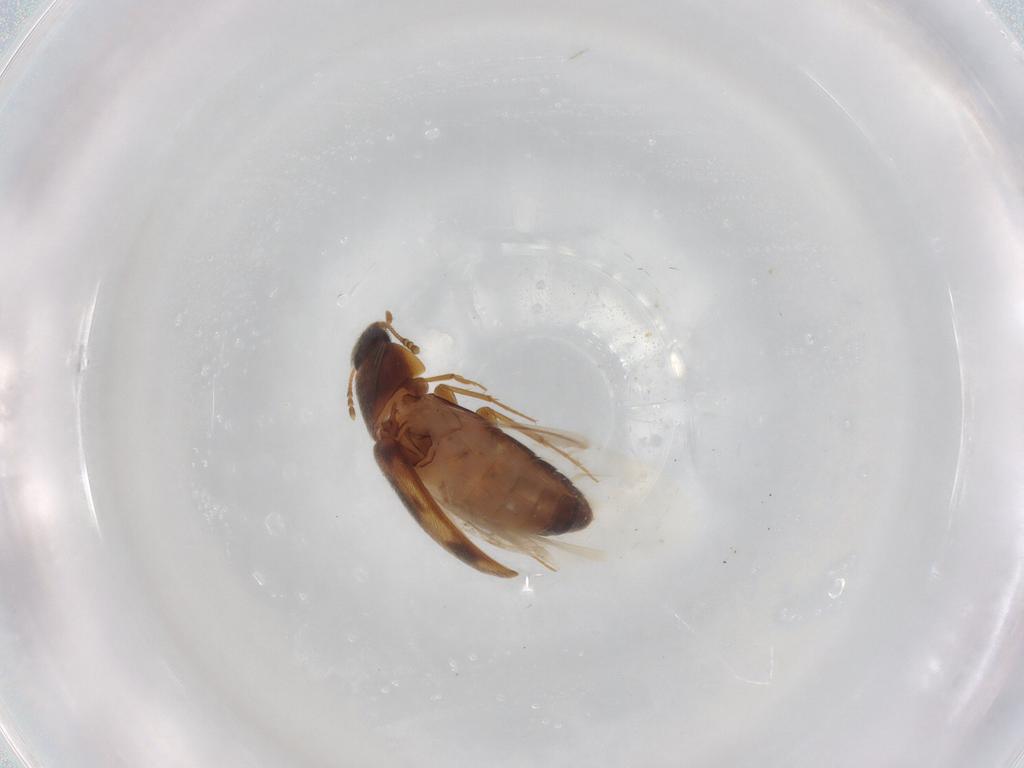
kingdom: Animalia
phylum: Arthropoda
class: Insecta
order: Coleoptera
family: Mycetophagidae
